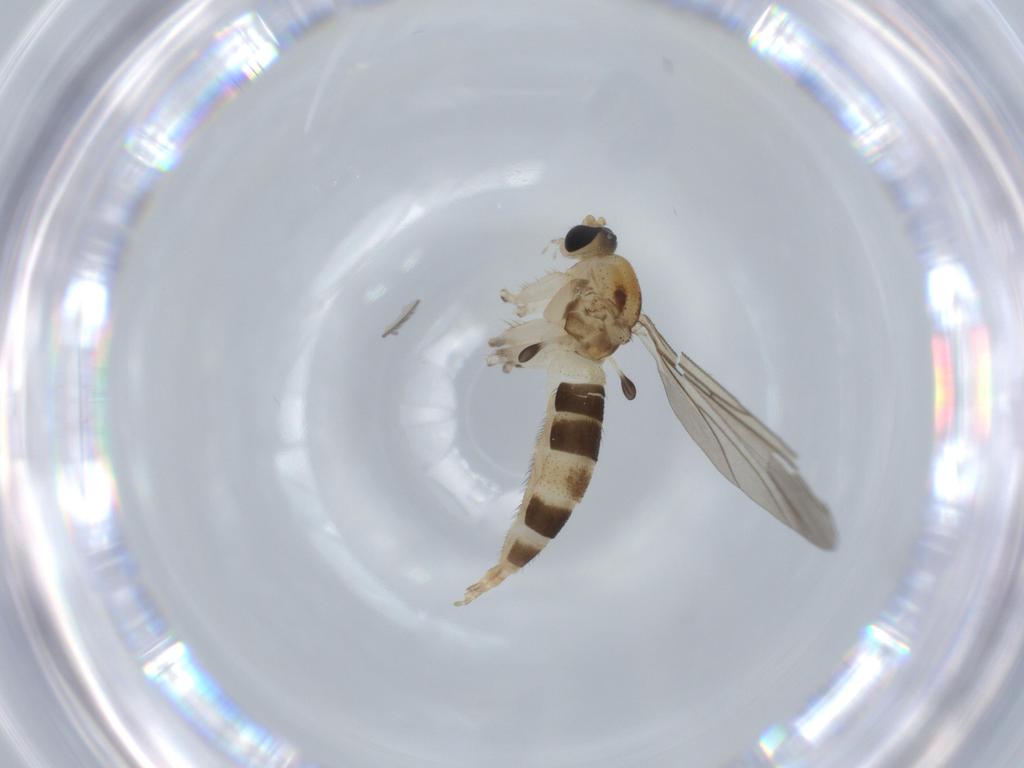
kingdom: Animalia
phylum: Arthropoda
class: Insecta
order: Diptera
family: Sciaridae
